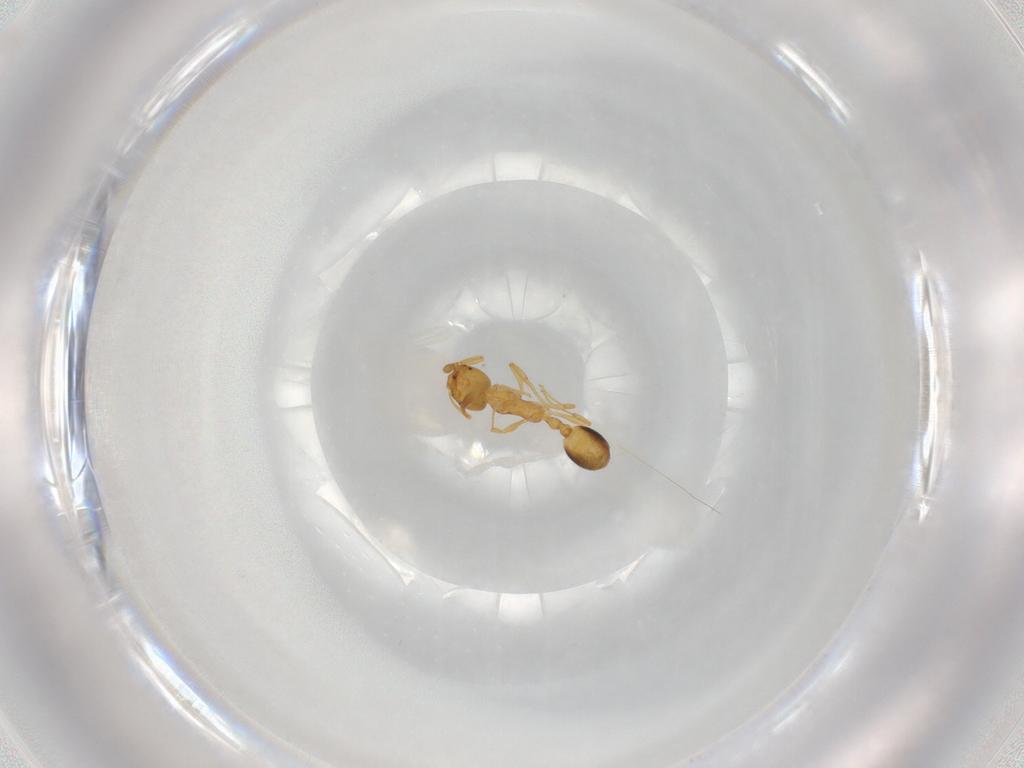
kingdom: Animalia
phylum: Arthropoda
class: Insecta
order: Hymenoptera
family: Formicidae
